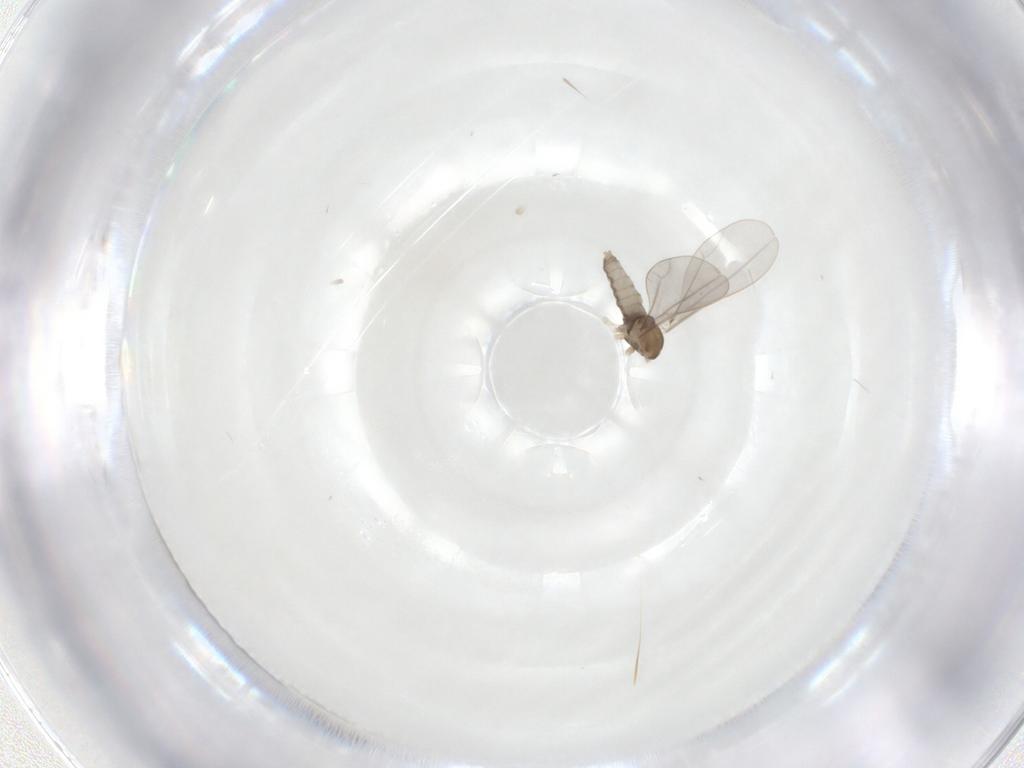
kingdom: Animalia
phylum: Arthropoda
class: Insecta
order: Diptera
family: Cecidomyiidae
